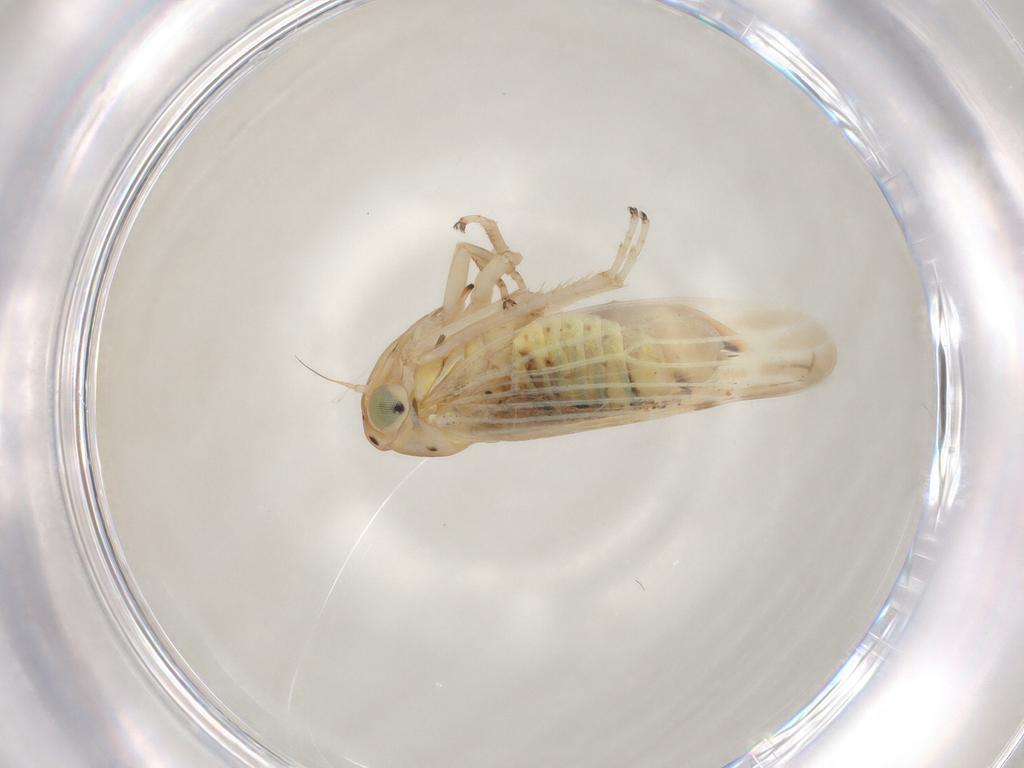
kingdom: Animalia
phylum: Arthropoda
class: Insecta
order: Hemiptera
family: Cicadellidae
